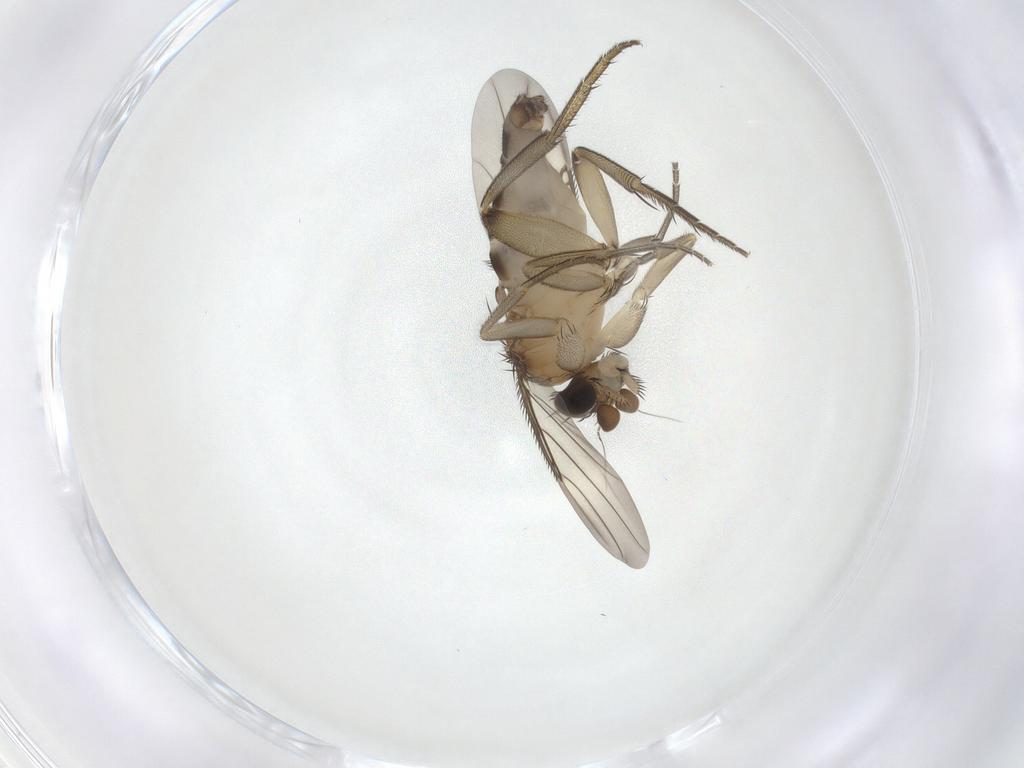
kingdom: Animalia
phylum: Arthropoda
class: Insecta
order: Diptera
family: Phoridae
